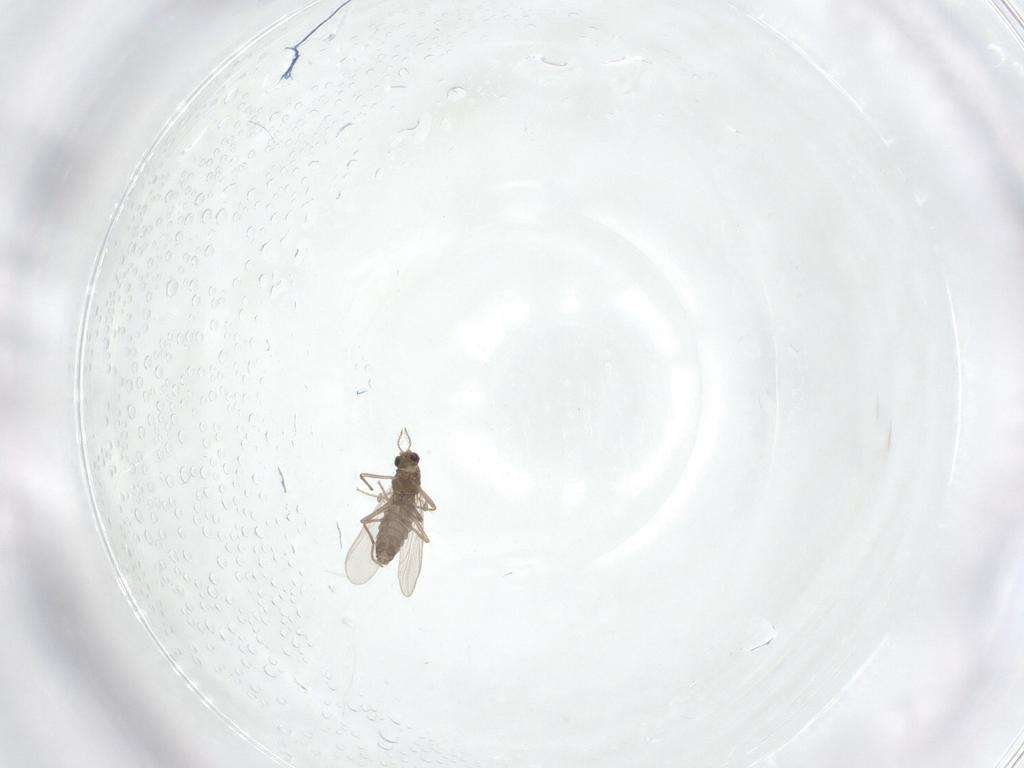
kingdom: Animalia
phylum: Arthropoda
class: Insecta
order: Diptera
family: Chironomidae
